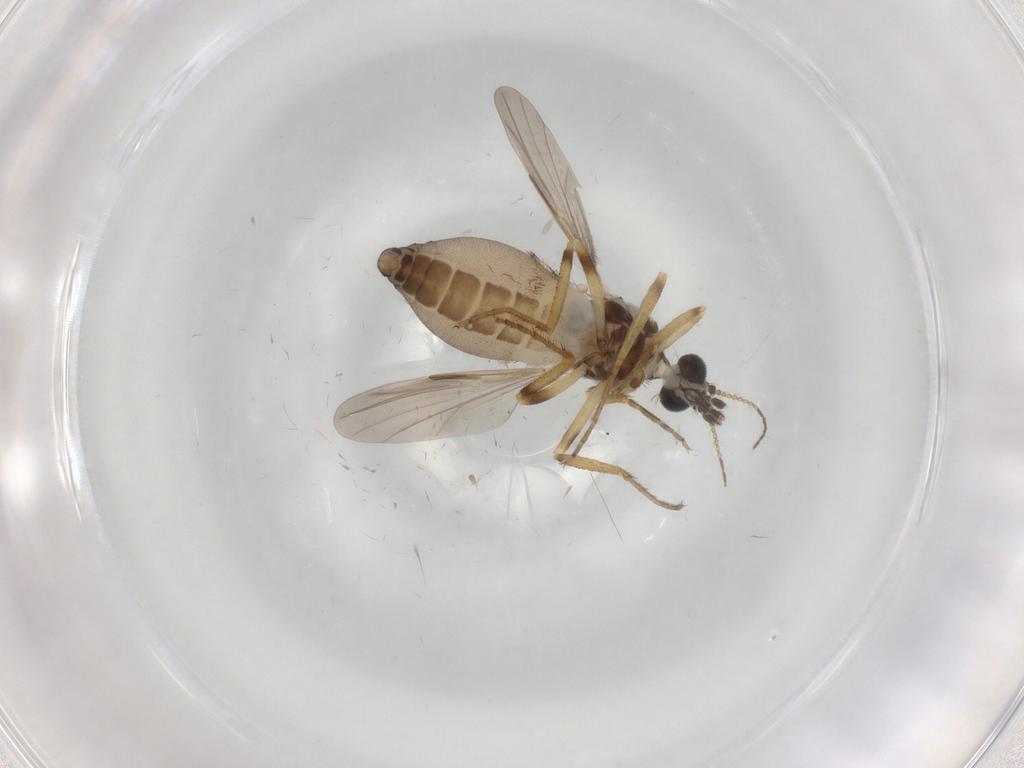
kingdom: Animalia
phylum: Arthropoda
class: Insecta
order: Diptera
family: Ceratopogonidae
